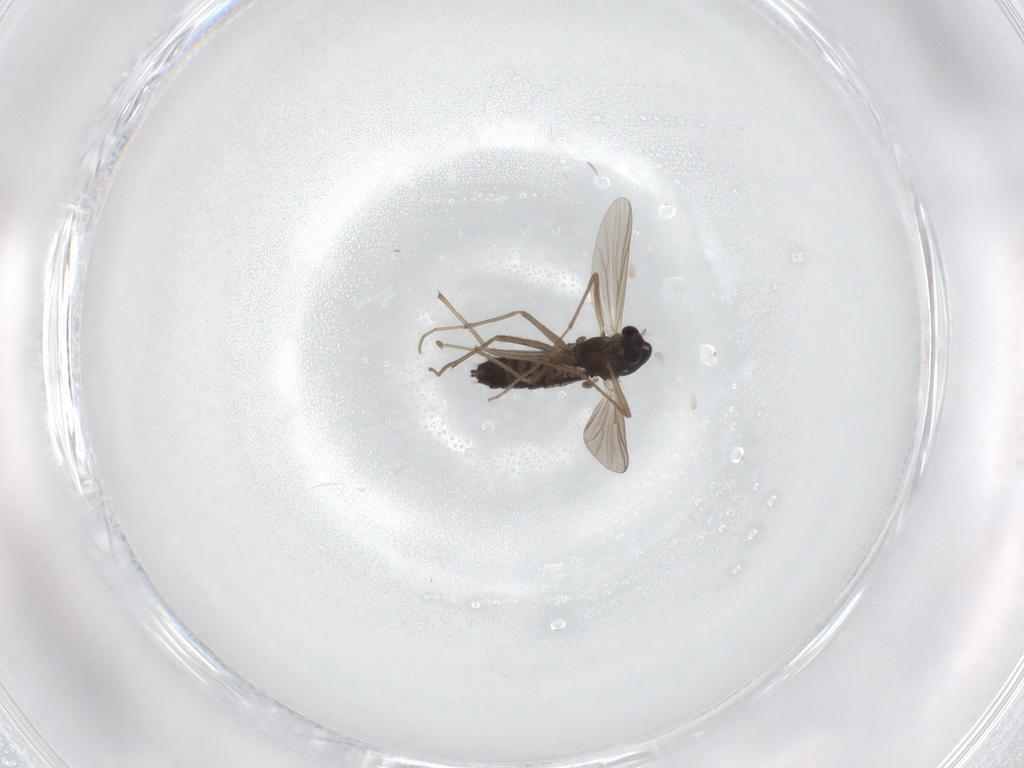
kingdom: Animalia
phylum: Arthropoda
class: Insecta
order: Diptera
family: Chironomidae
